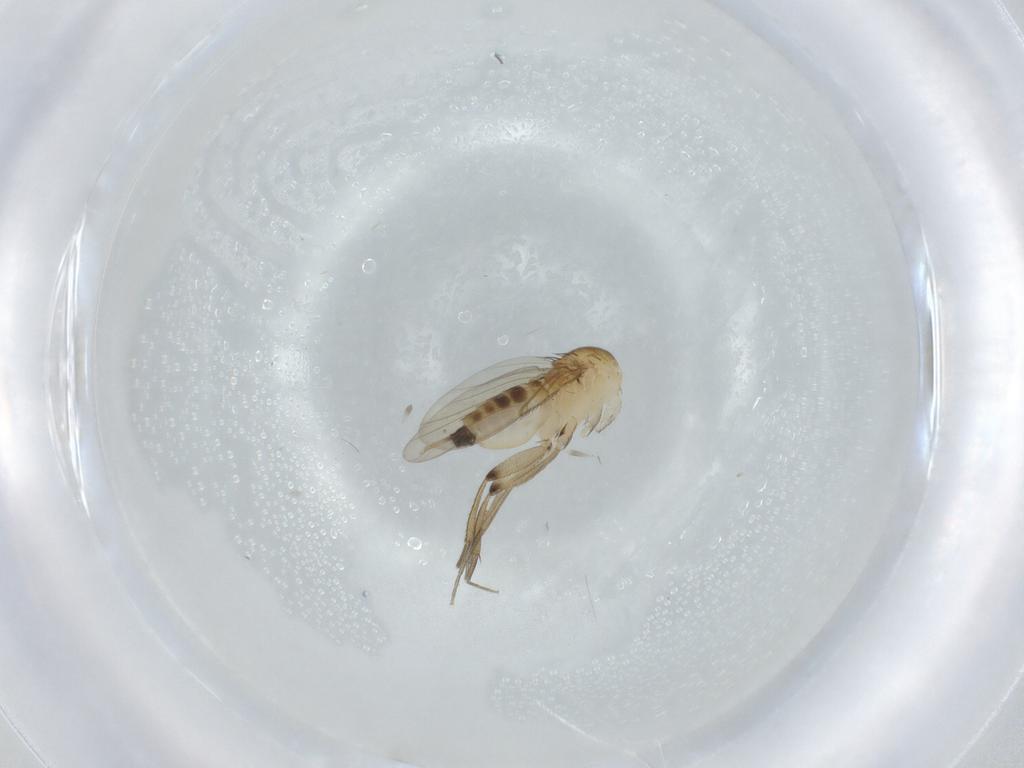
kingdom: Animalia
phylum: Arthropoda
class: Insecta
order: Diptera
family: Phoridae
